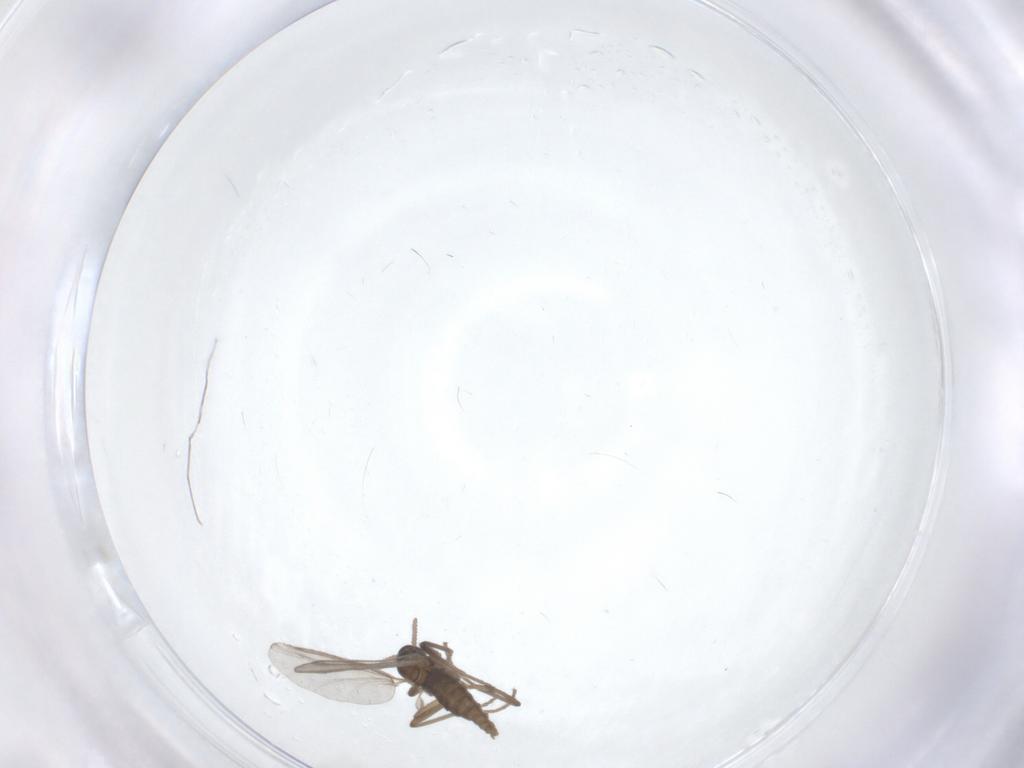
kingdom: Animalia
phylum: Arthropoda
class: Insecta
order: Diptera
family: Cecidomyiidae
